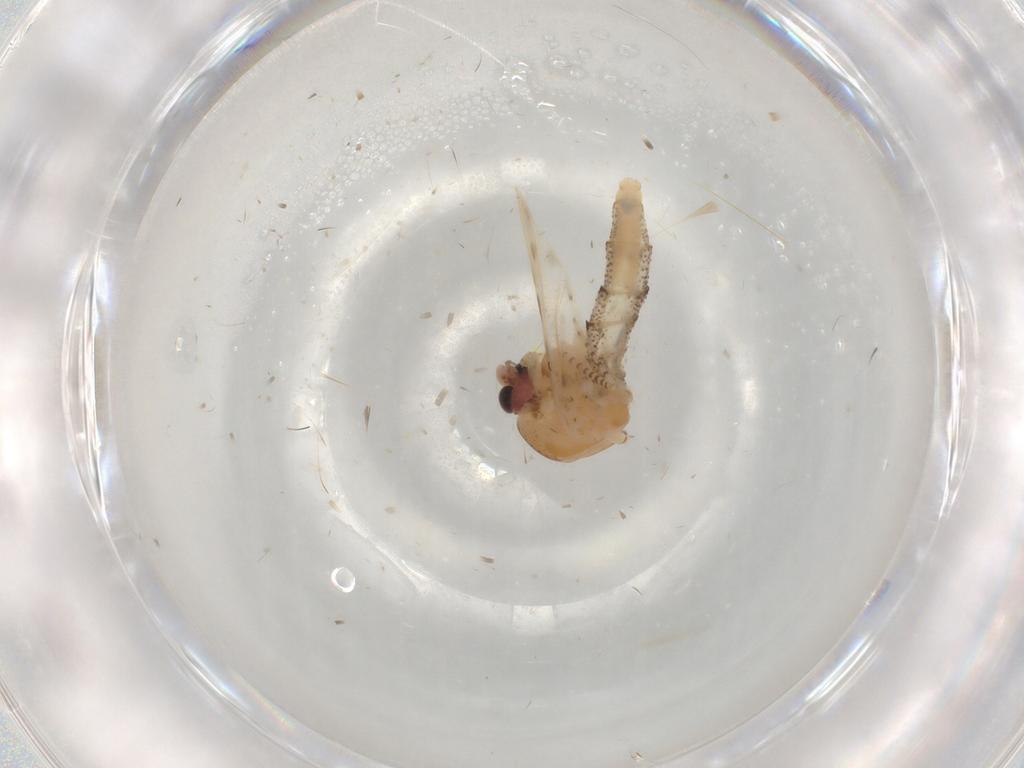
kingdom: Animalia
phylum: Arthropoda
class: Insecta
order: Diptera
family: Chaoboridae
